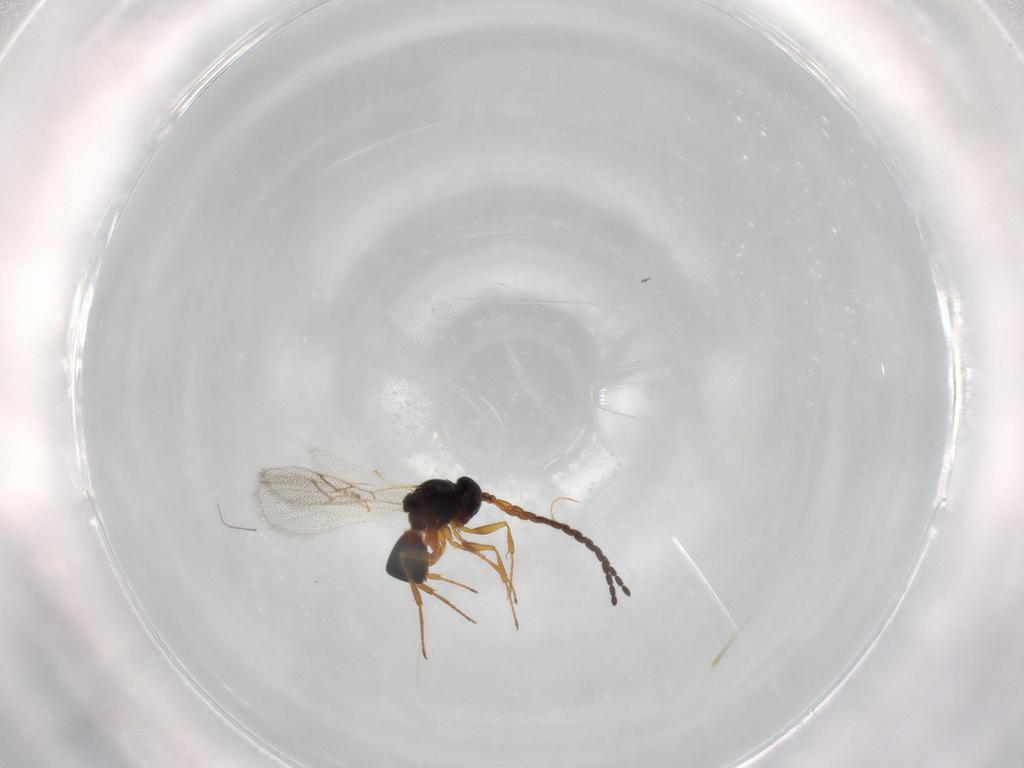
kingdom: Animalia
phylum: Arthropoda
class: Insecta
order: Hymenoptera
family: Figitidae
